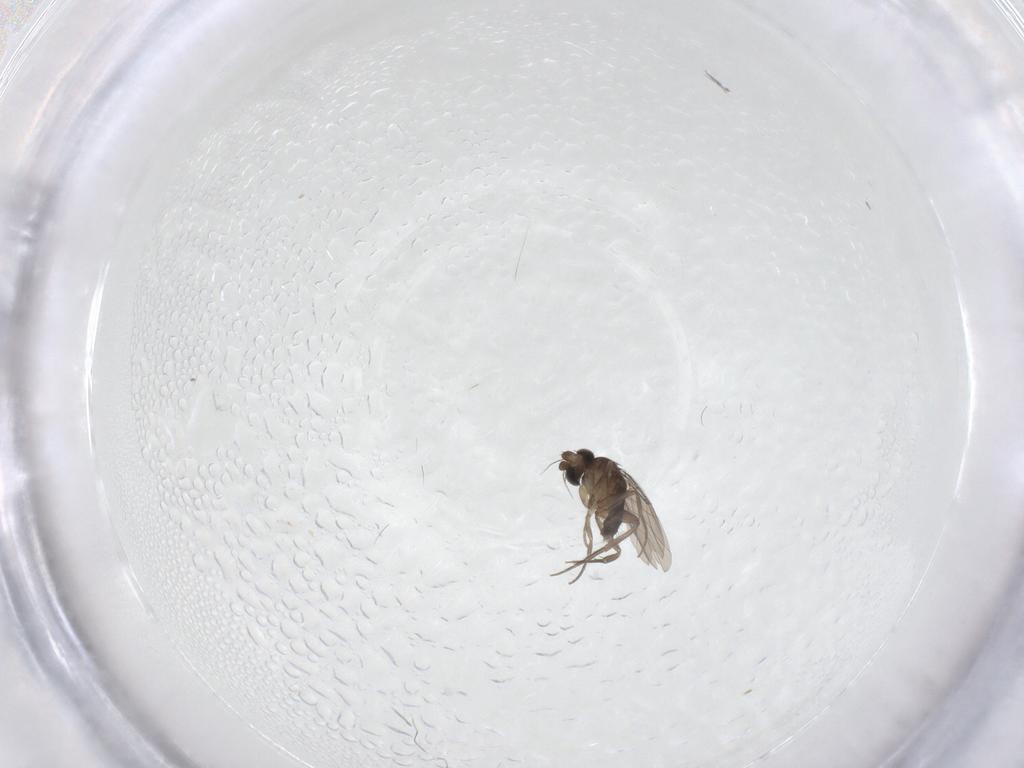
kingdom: Animalia
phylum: Arthropoda
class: Insecta
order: Diptera
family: Phoridae
